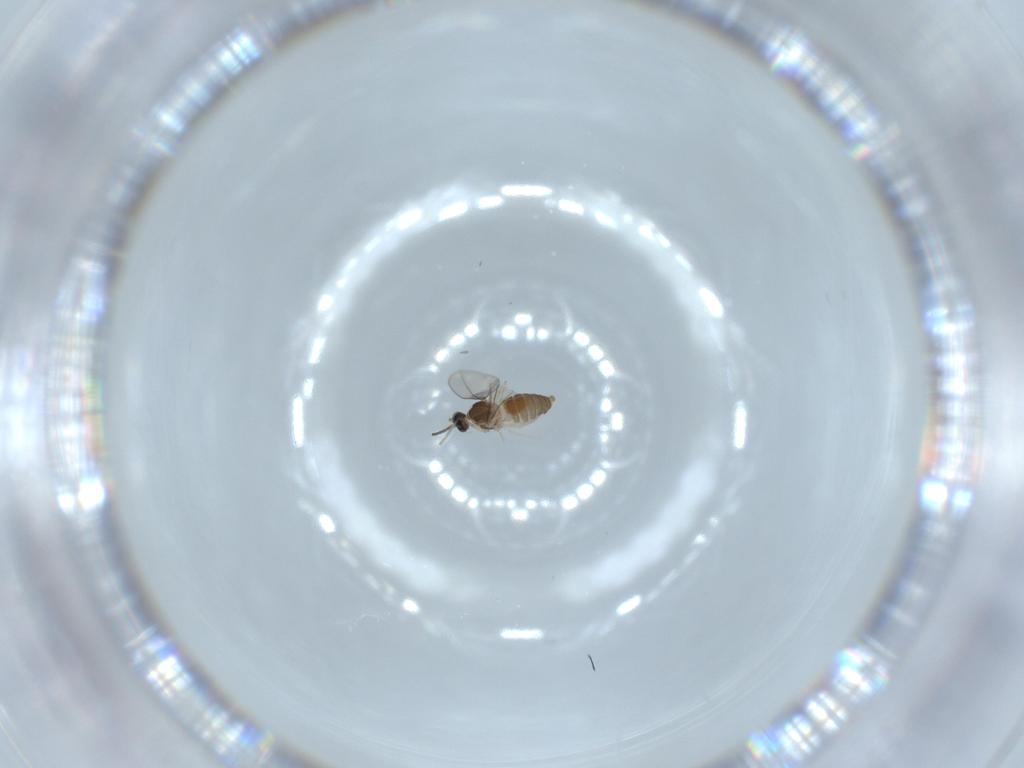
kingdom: Animalia
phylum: Arthropoda
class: Insecta
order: Diptera
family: Cecidomyiidae
